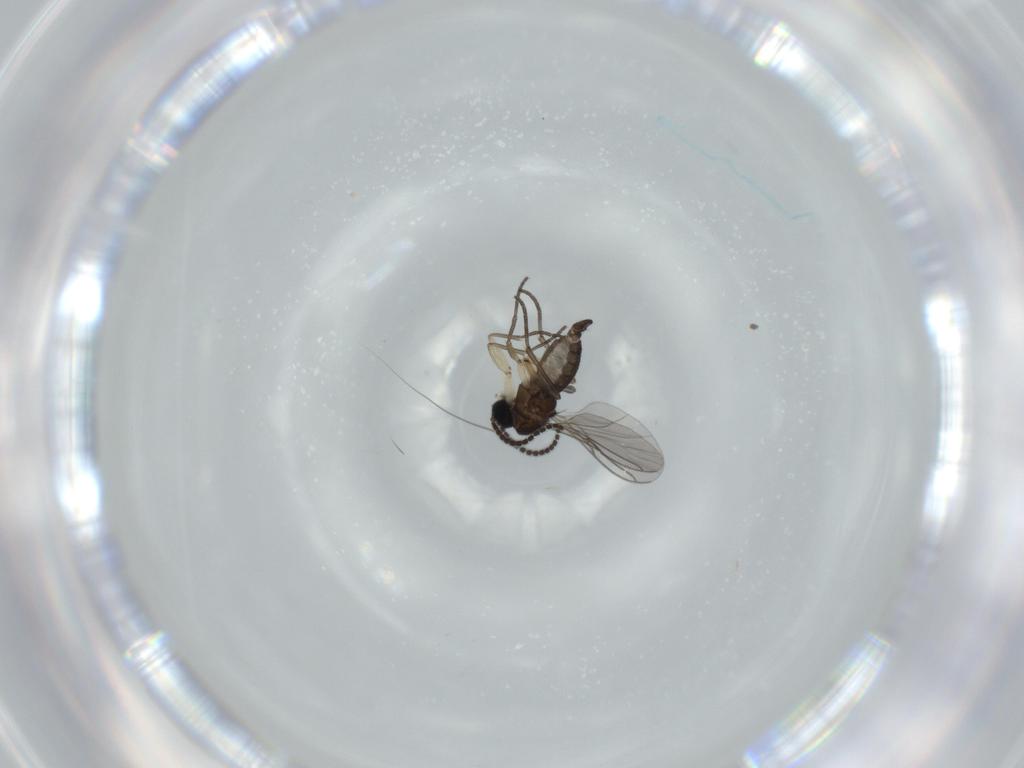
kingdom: Animalia
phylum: Arthropoda
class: Insecta
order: Diptera
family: Sciaridae
